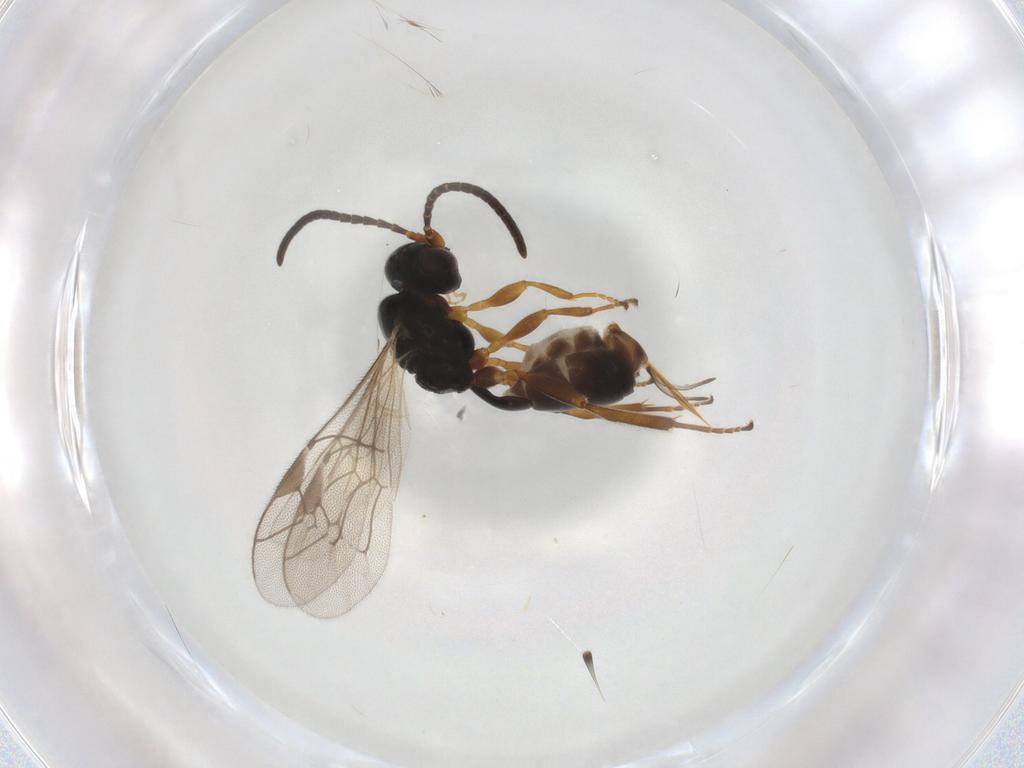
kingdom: Animalia
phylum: Arthropoda
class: Insecta
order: Hymenoptera
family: Ichneumonidae
